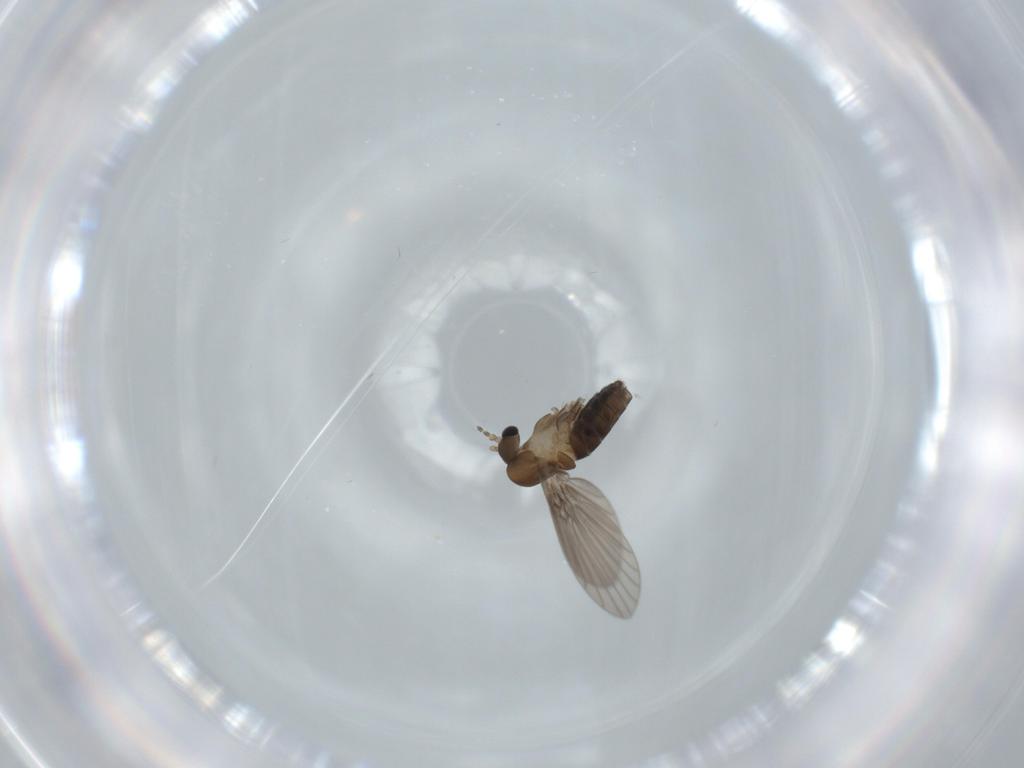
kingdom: Animalia
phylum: Arthropoda
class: Insecta
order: Diptera
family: Psychodidae
